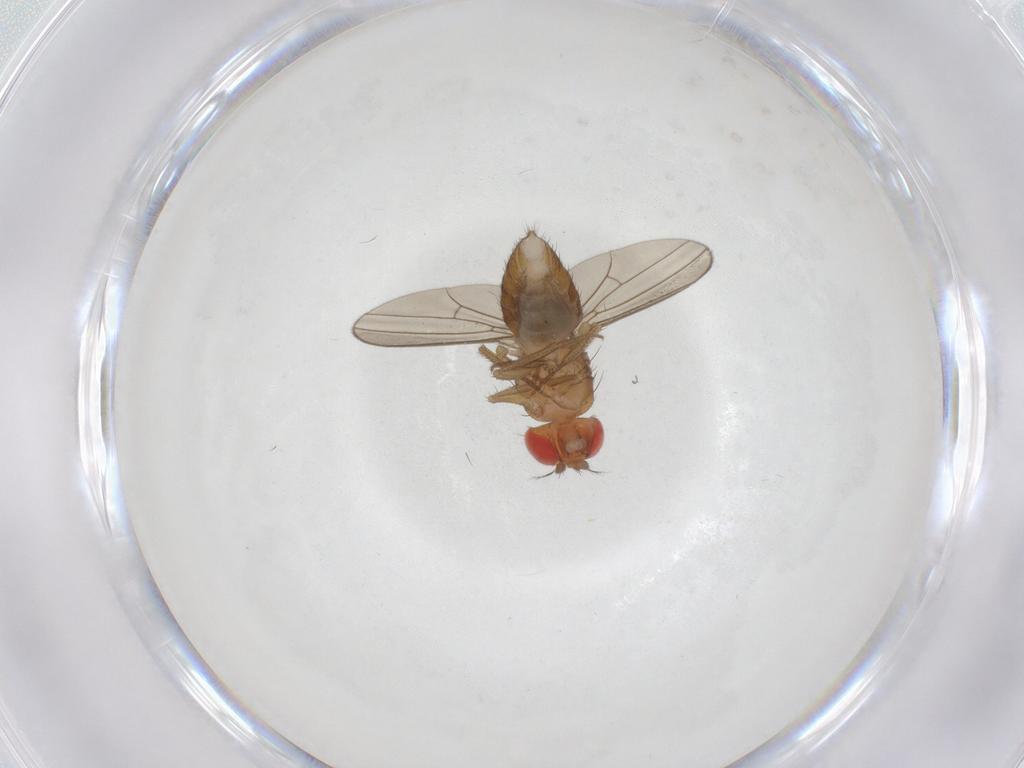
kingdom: Animalia
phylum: Arthropoda
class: Insecta
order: Diptera
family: Drosophilidae
